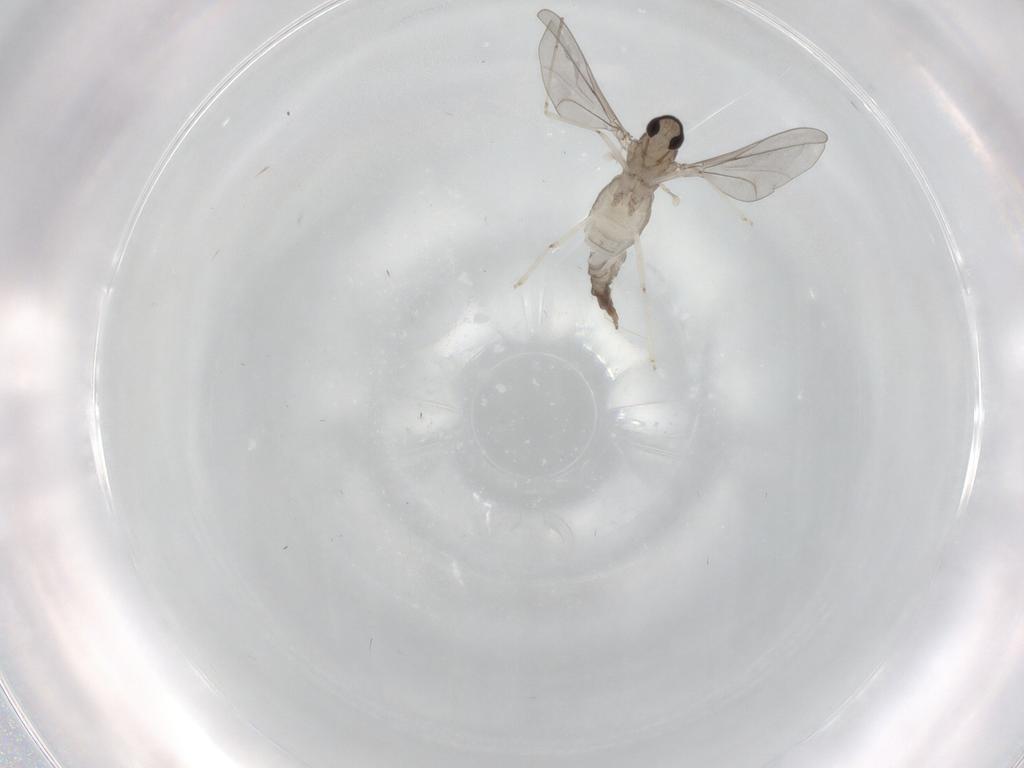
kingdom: Animalia
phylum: Arthropoda
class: Insecta
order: Diptera
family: Cecidomyiidae
